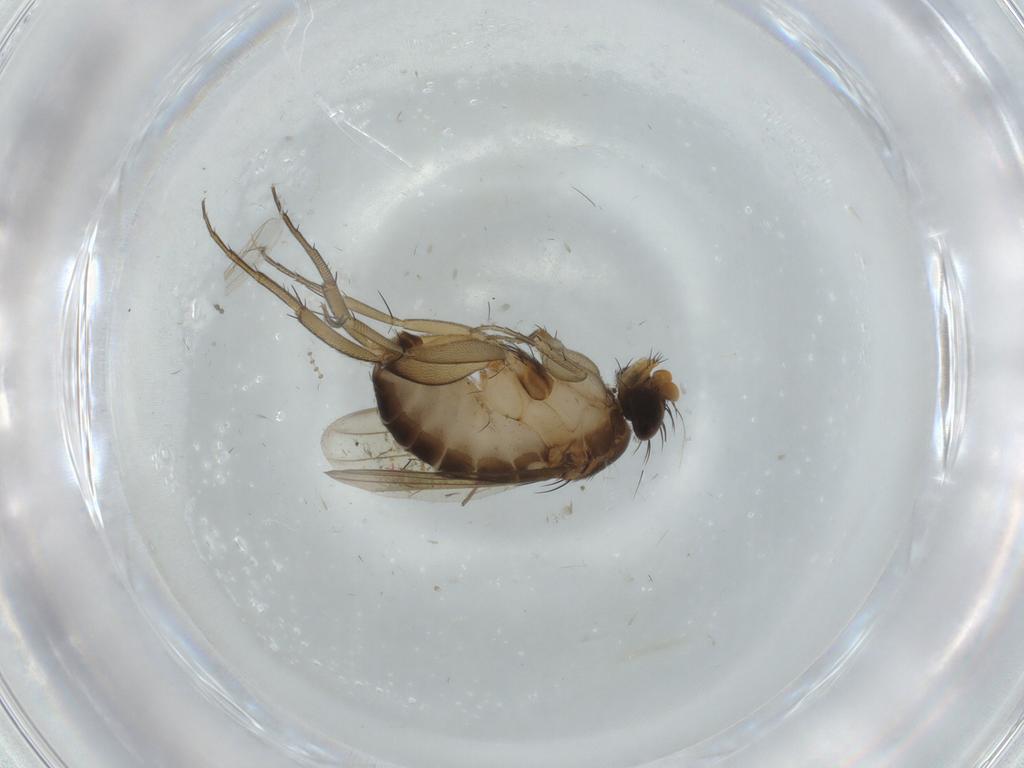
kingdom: Animalia
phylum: Arthropoda
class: Insecta
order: Diptera
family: Phoridae
